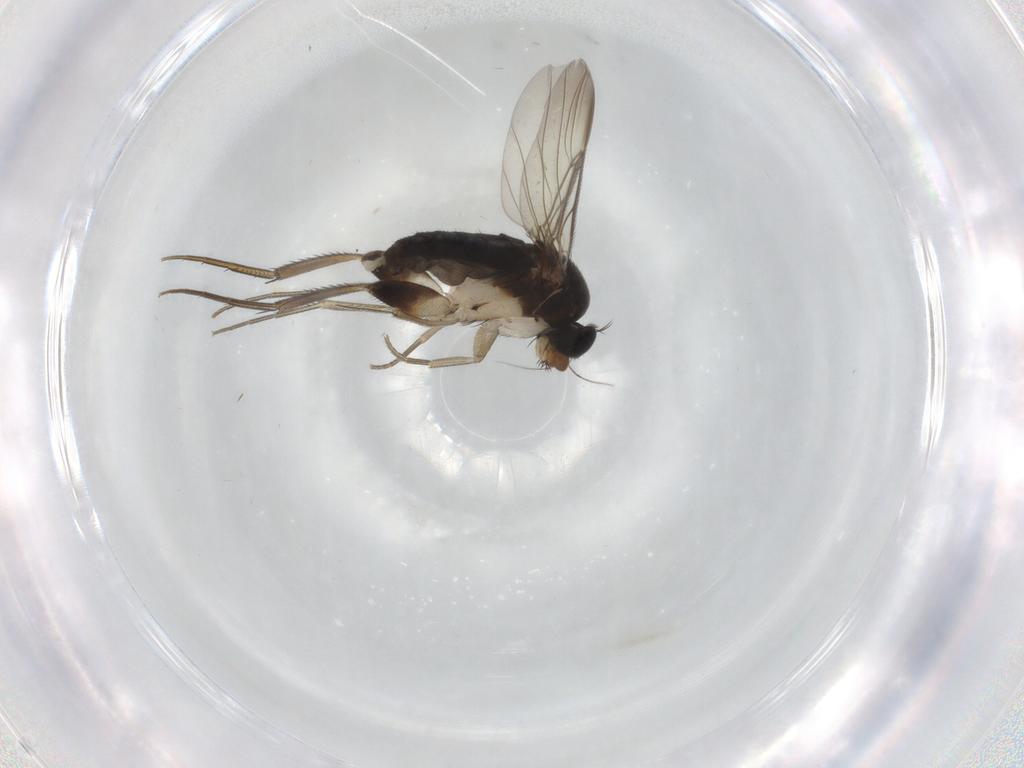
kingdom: Animalia
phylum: Arthropoda
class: Insecta
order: Diptera
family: Phoridae
